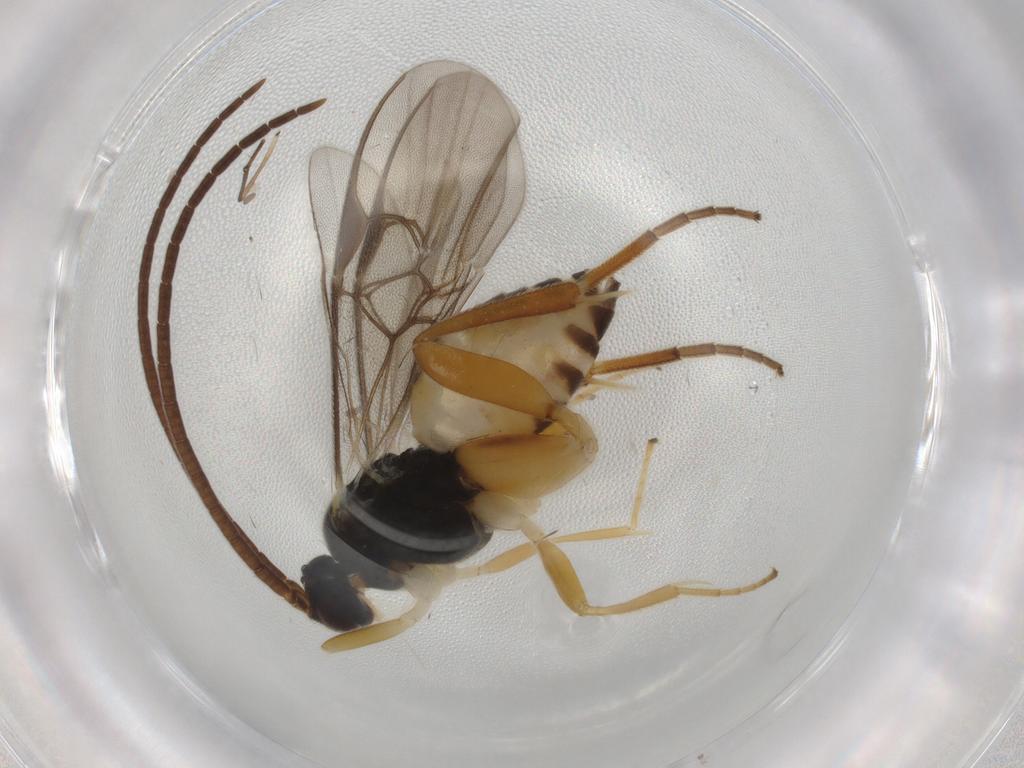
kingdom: Animalia
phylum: Arthropoda
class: Insecta
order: Hymenoptera
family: Braconidae
